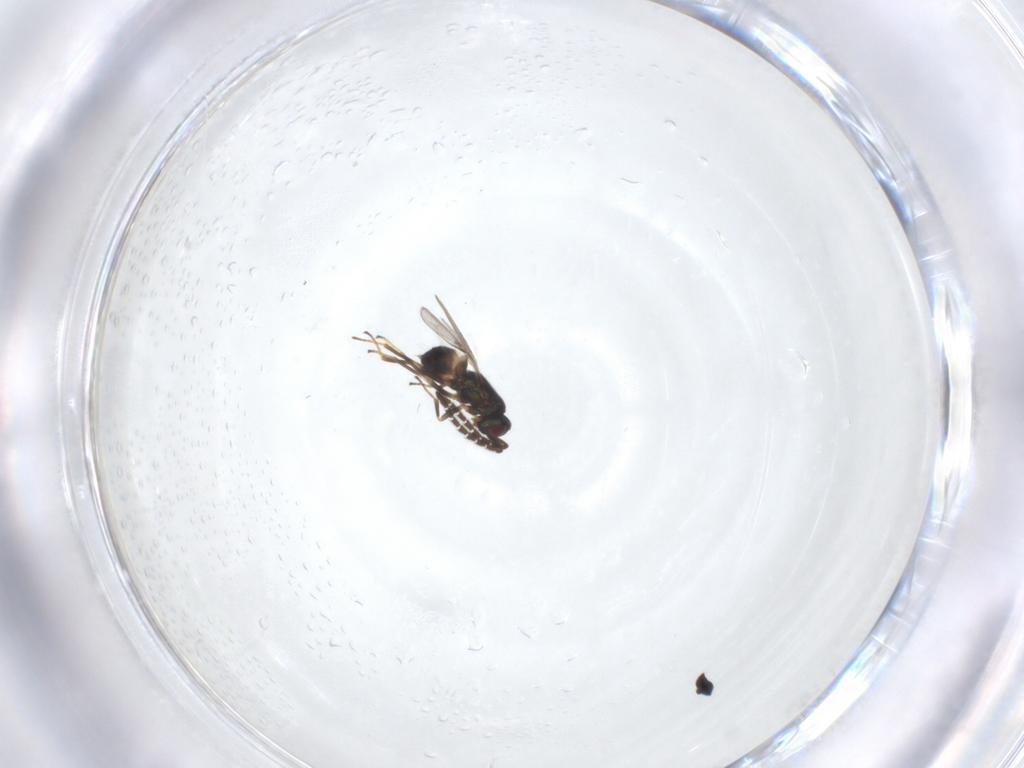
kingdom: Animalia
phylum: Arthropoda
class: Insecta
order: Hymenoptera
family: Encyrtidae
